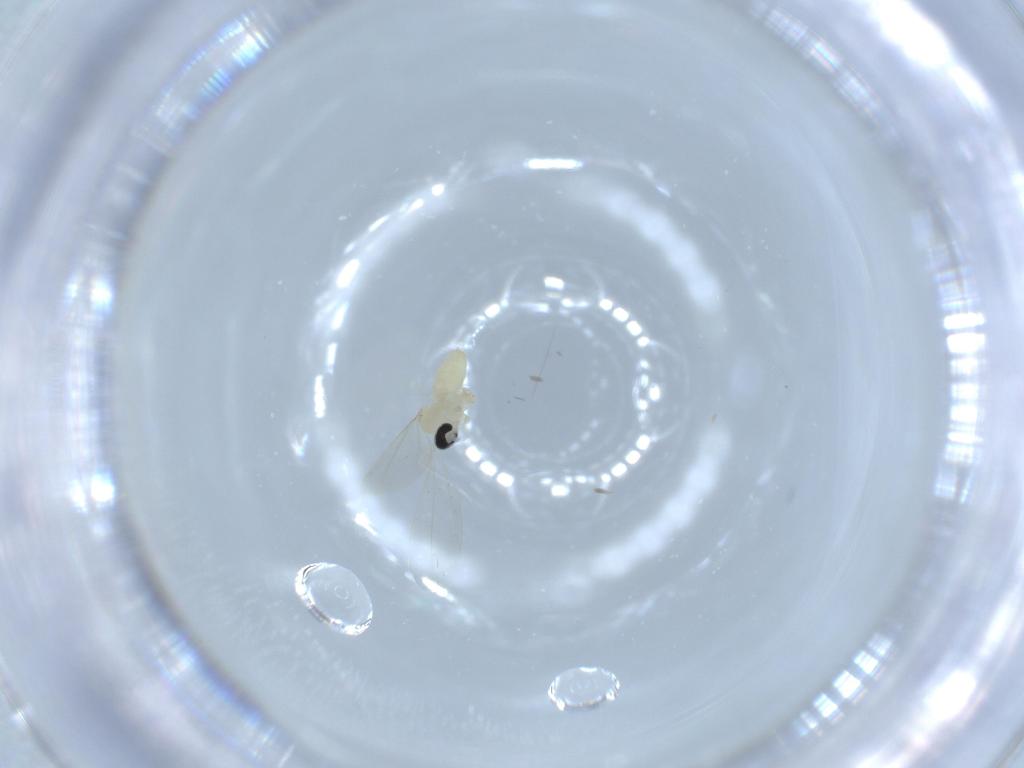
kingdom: Animalia
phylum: Arthropoda
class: Insecta
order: Diptera
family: Cecidomyiidae
